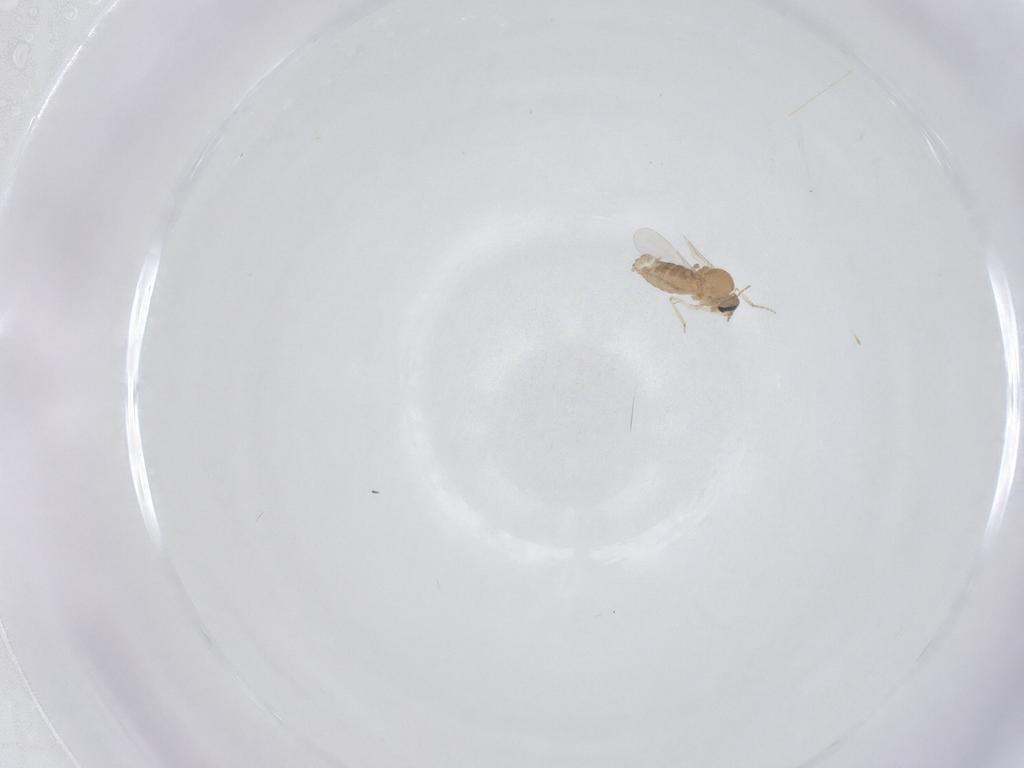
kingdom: Animalia
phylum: Arthropoda
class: Insecta
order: Diptera
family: Ceratopogonidae
